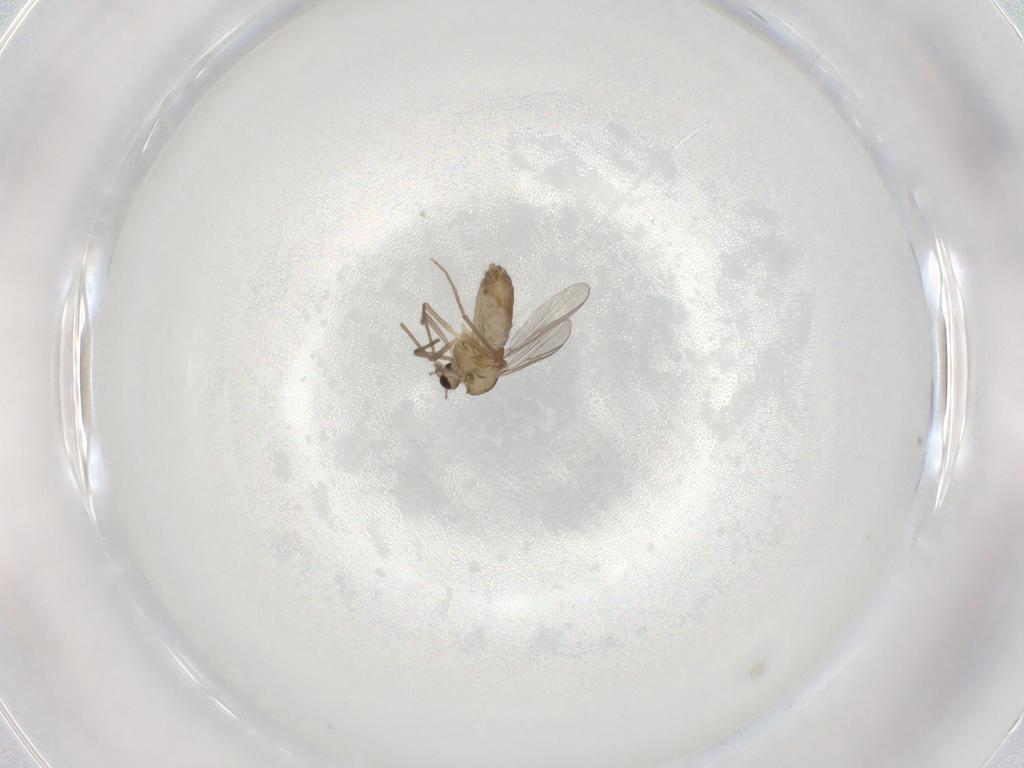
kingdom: Animalia
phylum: Arthropoda
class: Insecta
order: Diptera
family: Chironomidae
